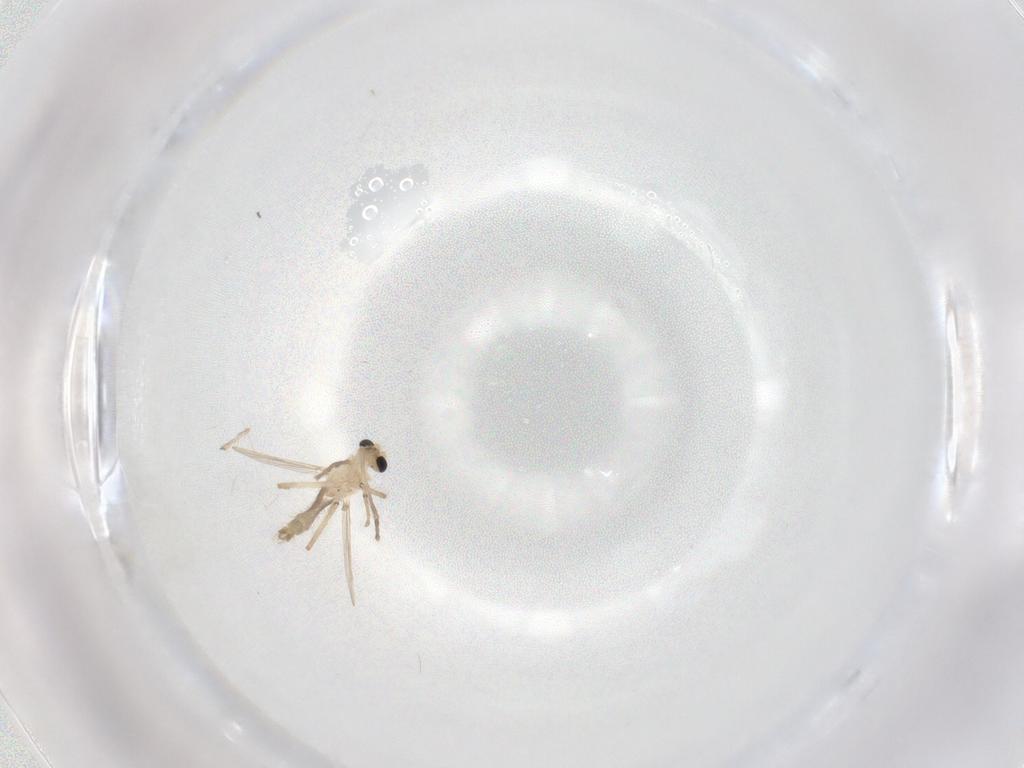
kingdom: Animalia
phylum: Arthropoda
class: Insecta
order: Diptera
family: Chironomidae
